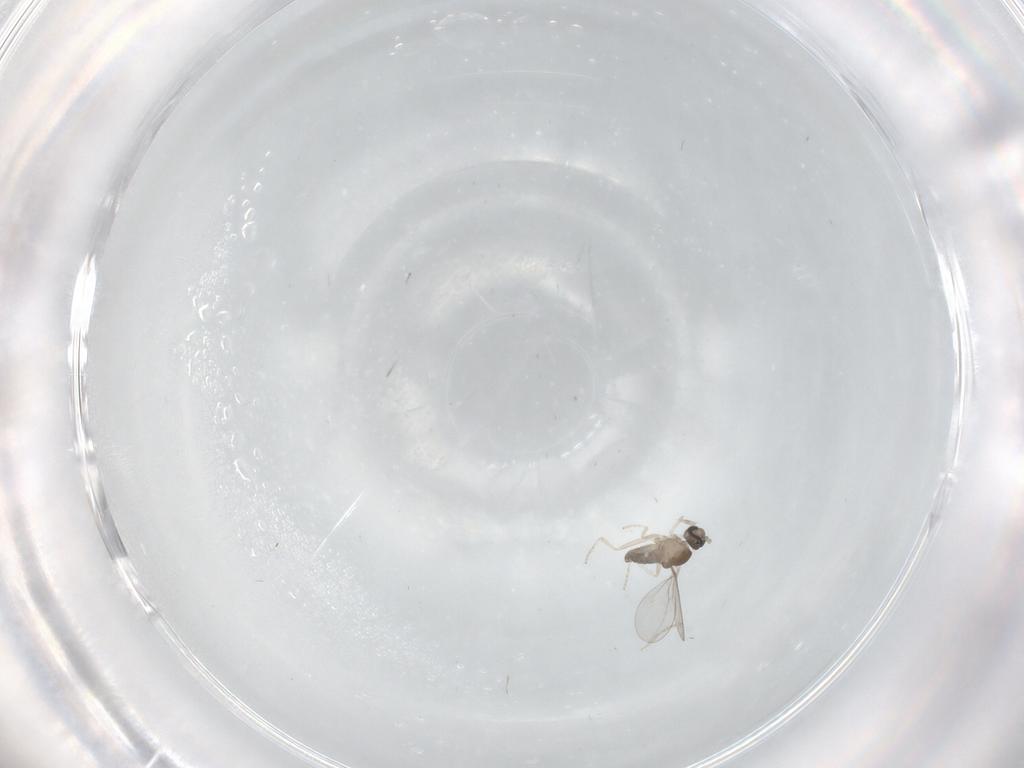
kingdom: Animalia
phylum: Arthropoda
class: Insecta
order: Diptera
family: Cecidomyiidae
